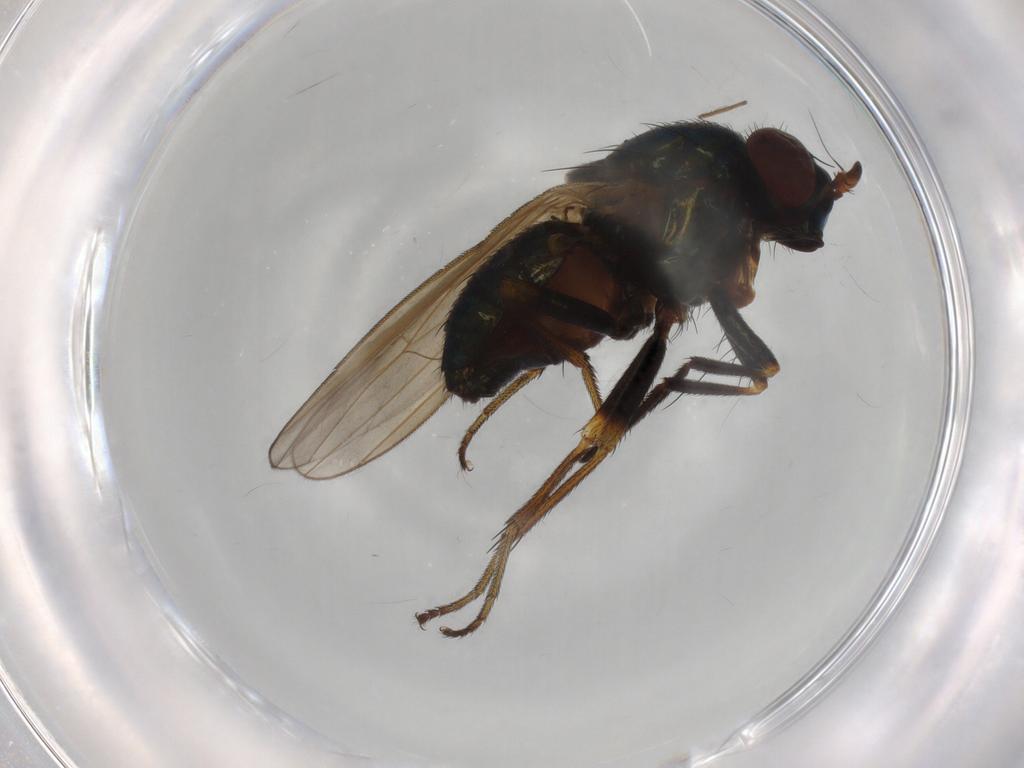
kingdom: Animalia
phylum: Arthropoda
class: Insecta
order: Diptera
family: Lauxaniidae
